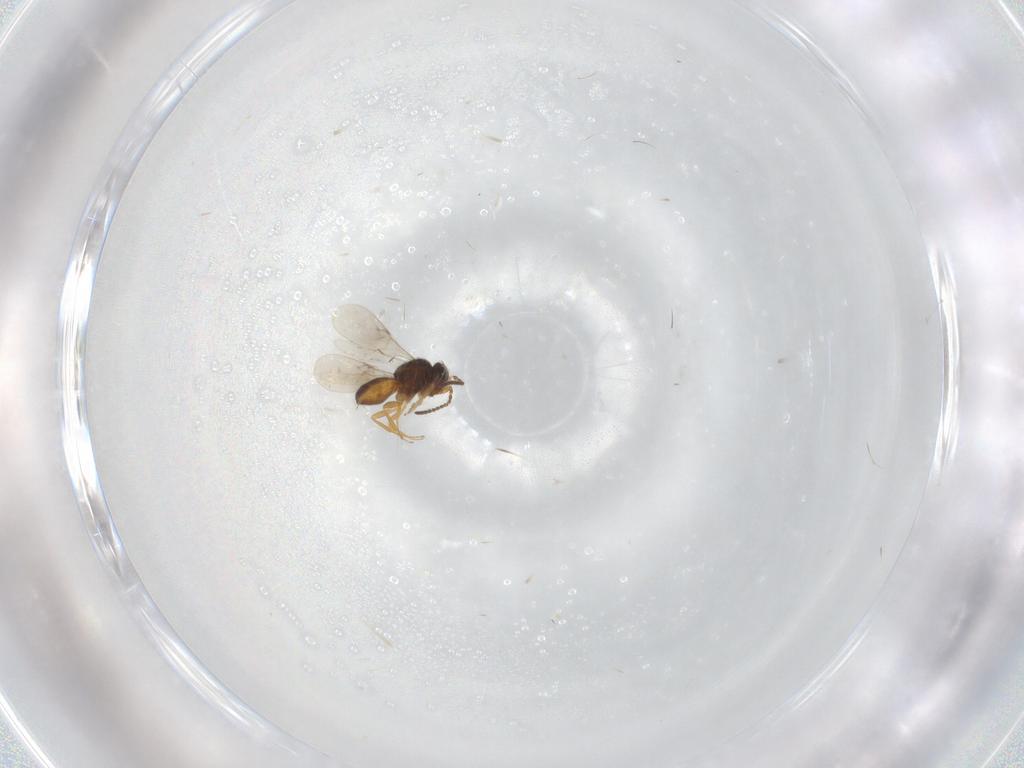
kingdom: Animalia
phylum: Arthropoda
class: Insecta
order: Hymenoptera
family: Scelionidae
